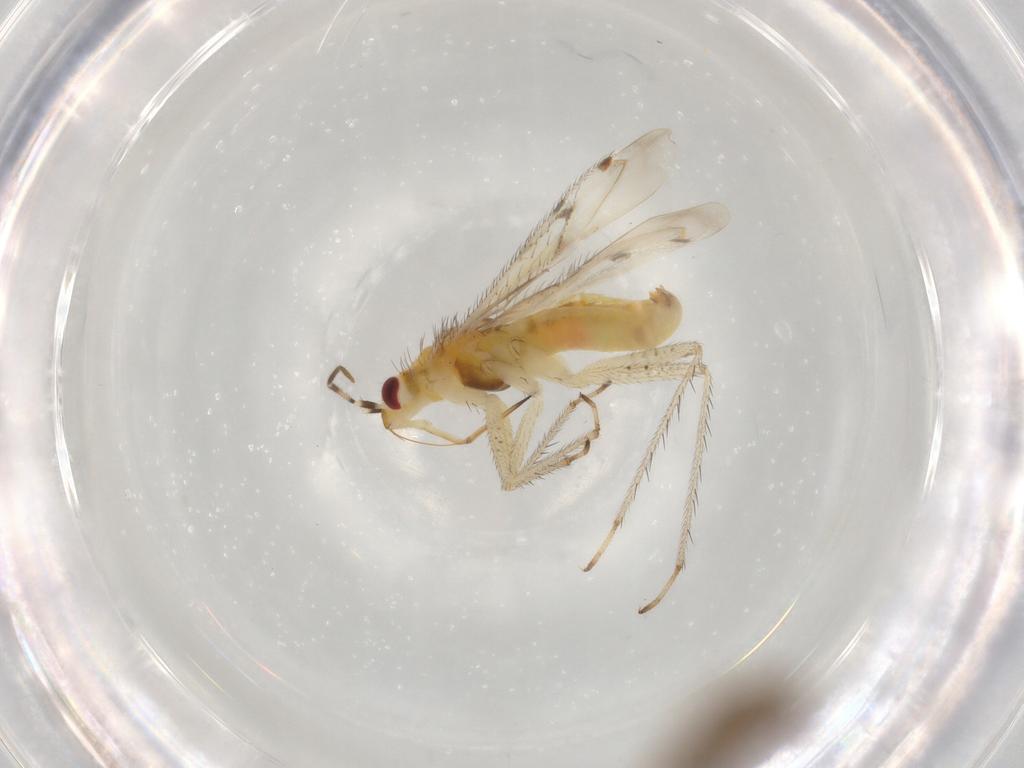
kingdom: Animalia
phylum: Arthropoda
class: Insecta
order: Hemiptera
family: Miridae
